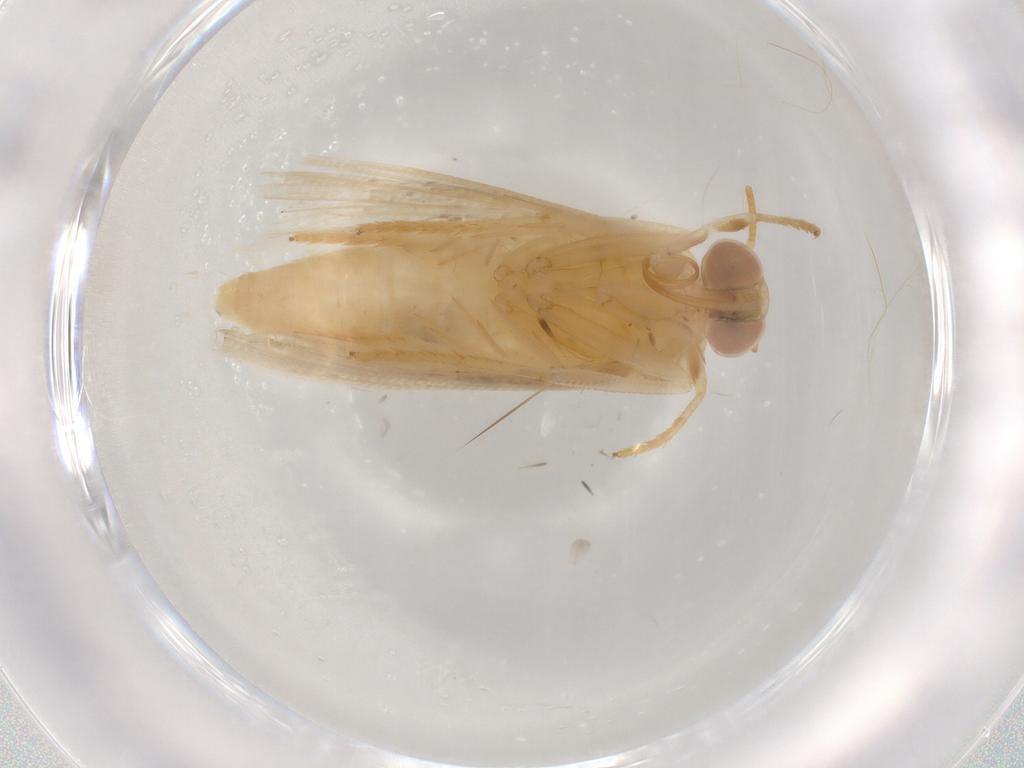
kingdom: Animalia
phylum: Arthropoda
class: Insecta
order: Lepidoptera
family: Noctuidae
